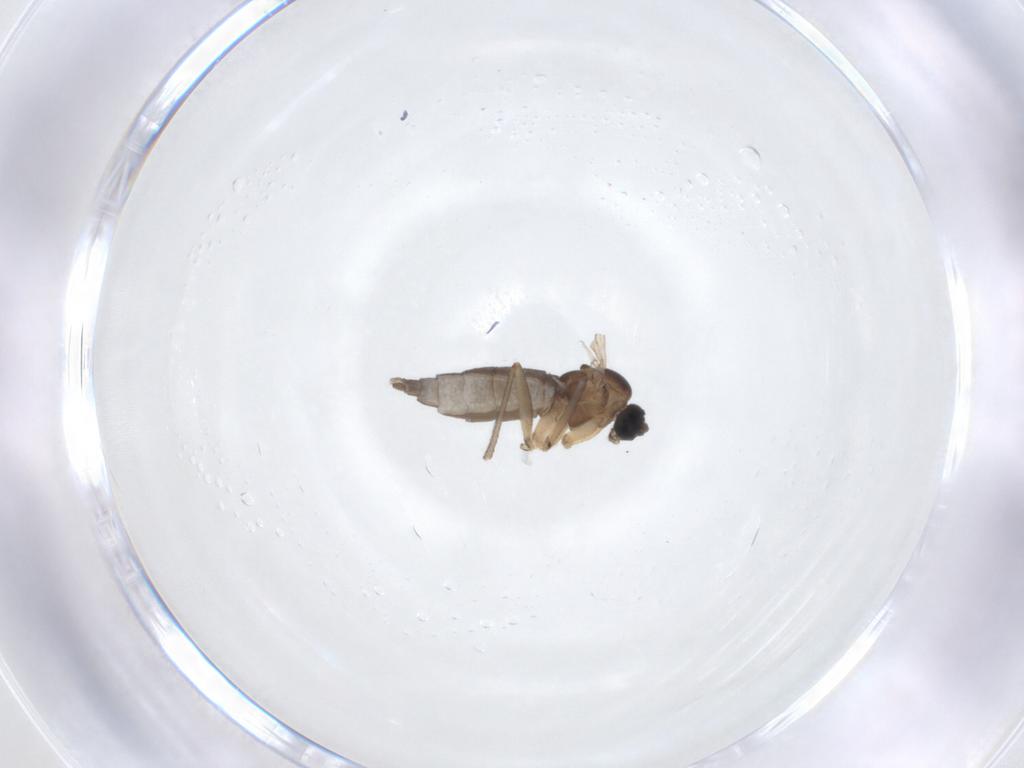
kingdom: Animalia
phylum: Arthropoda
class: Insecta
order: Diptera
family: Sciaridae
